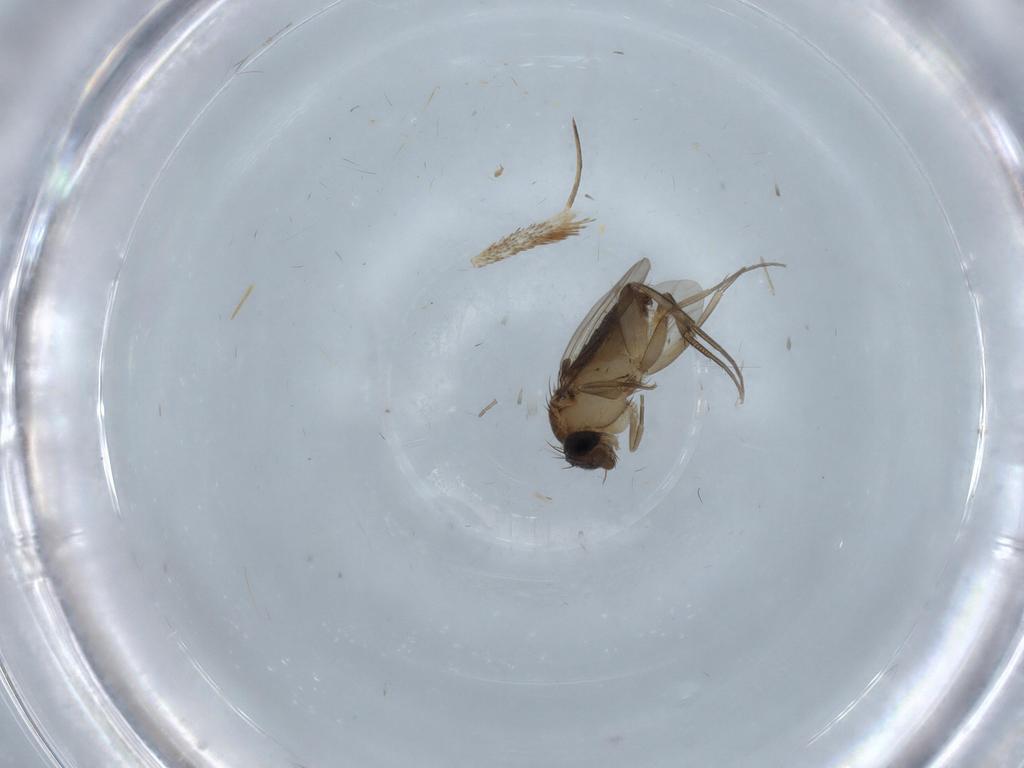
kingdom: Animalia
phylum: Arthropoda
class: Insecta
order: Diptera
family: Dolichopodidae
